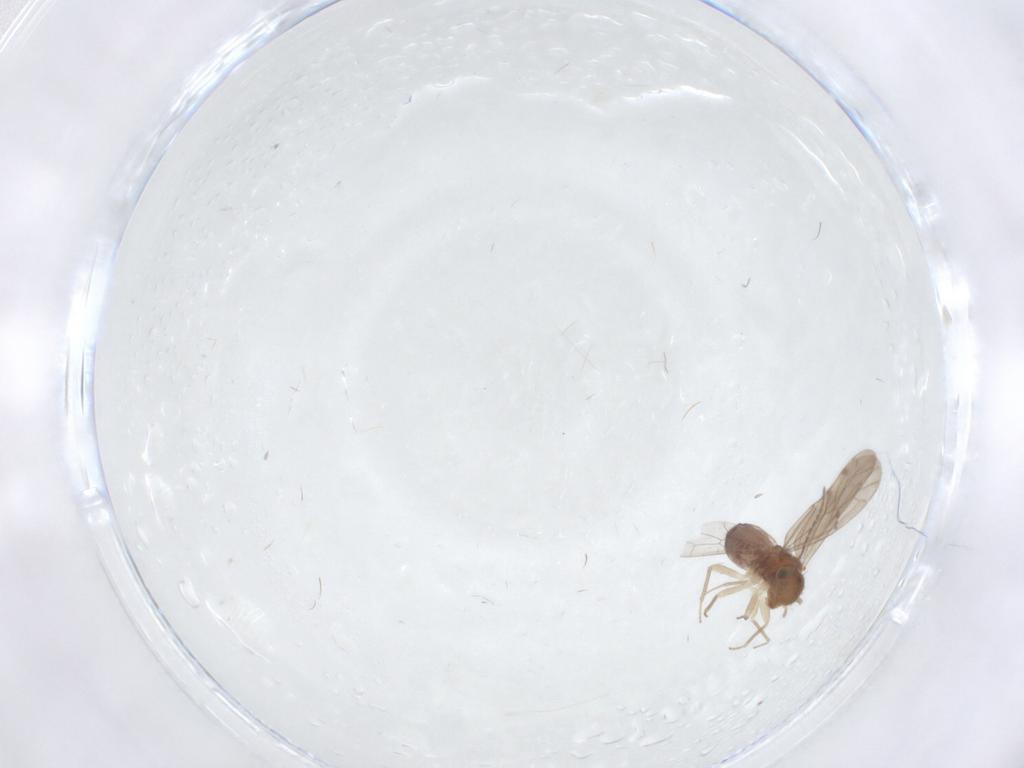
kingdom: Animalia
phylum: Arthropoda
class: Insecta
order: Psocodea
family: Ectopsocidae
